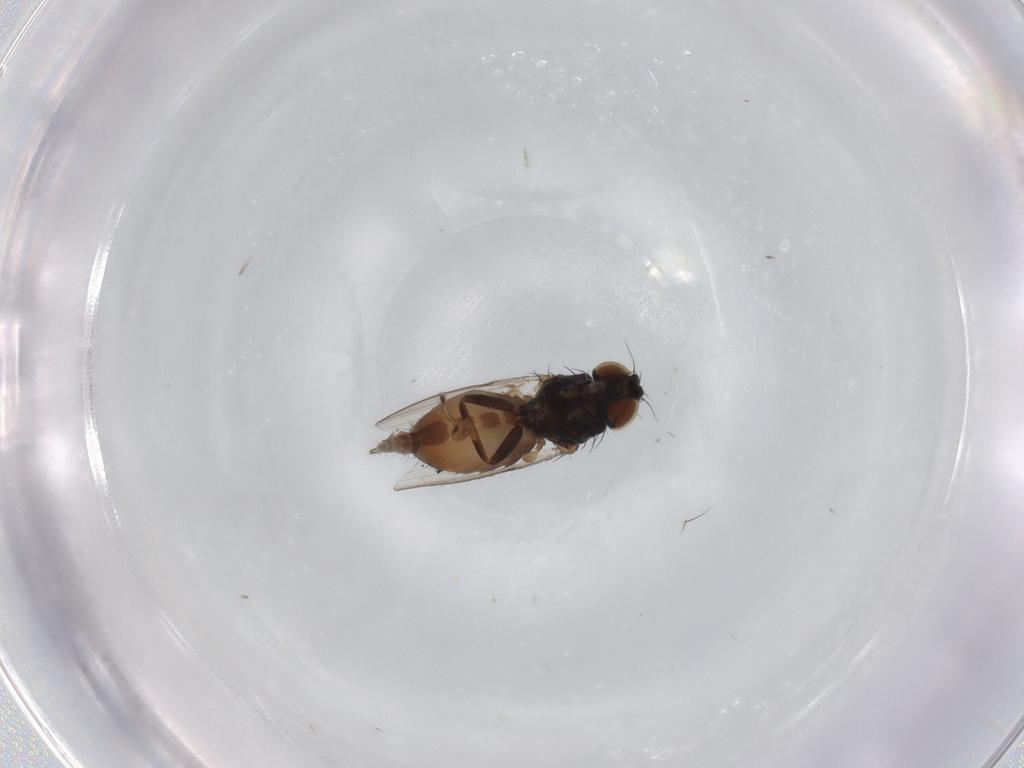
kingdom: Animalia
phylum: Arthropoda
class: Insecta
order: Diptera
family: Milichiidae
